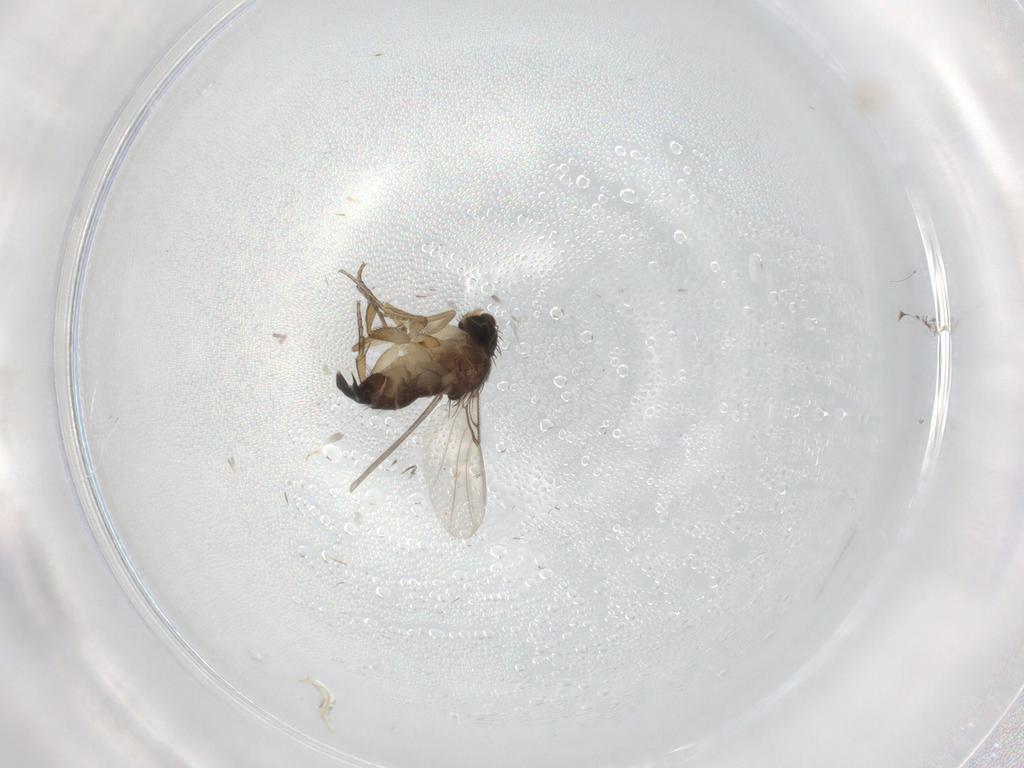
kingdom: Animalia
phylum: Arthropoda
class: Insecta
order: Diptera
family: Phoridae
